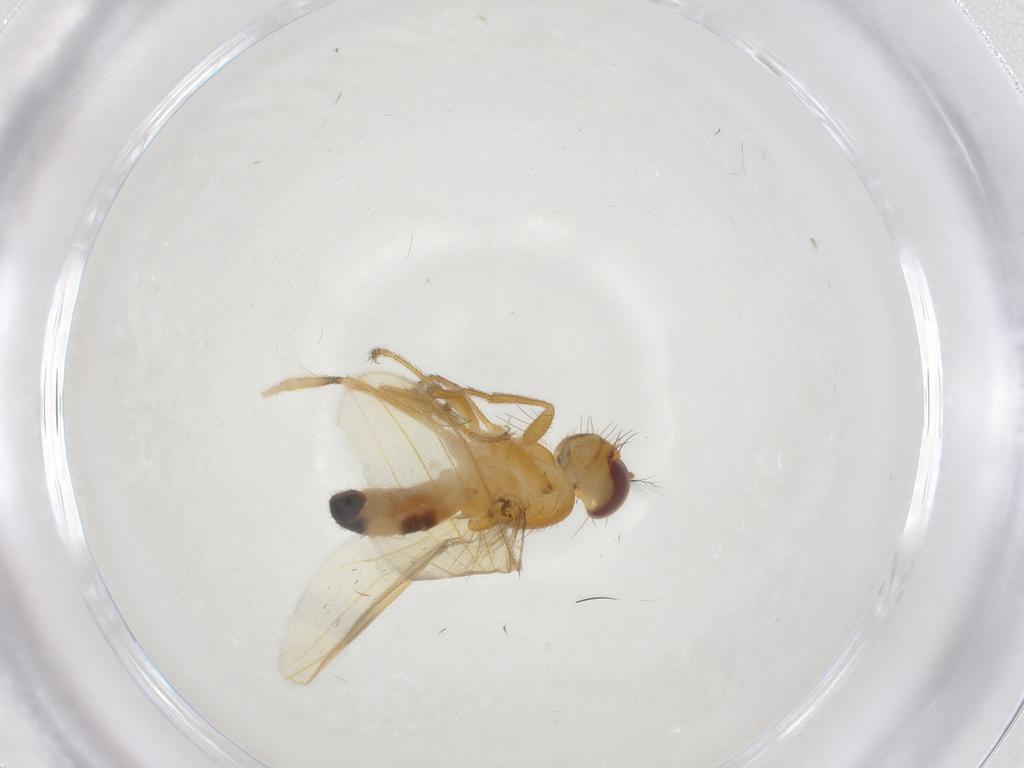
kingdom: Animalia
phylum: Arthropoda
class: Insecta
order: Diptera
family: Periscelididae
